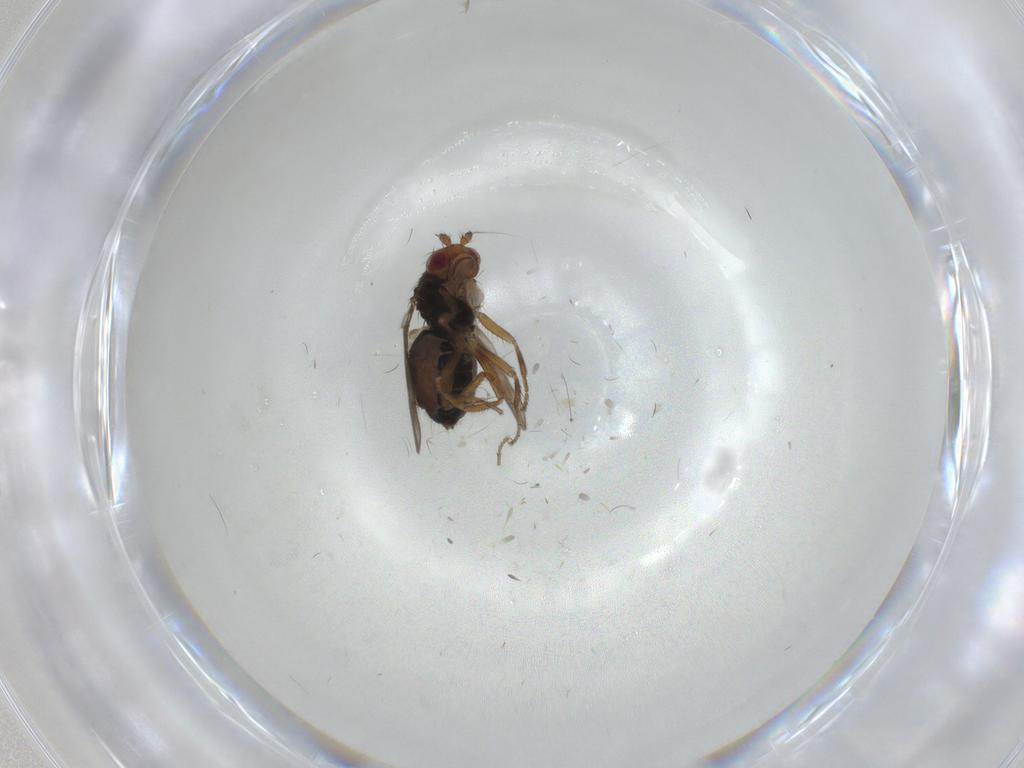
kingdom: Animalia
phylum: Arthropoda
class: Insecta
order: Diptera
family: Sphaeroceridae
